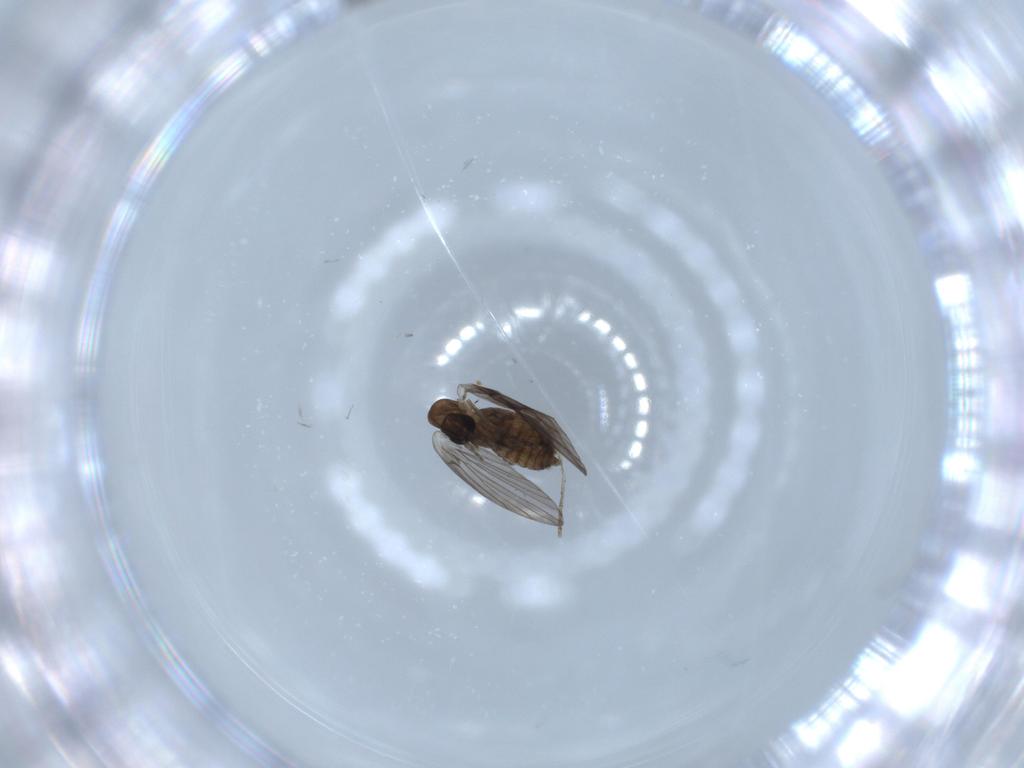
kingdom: Animalia
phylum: Arthropoda
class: Insecta
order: Diptera
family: Psychodidae
